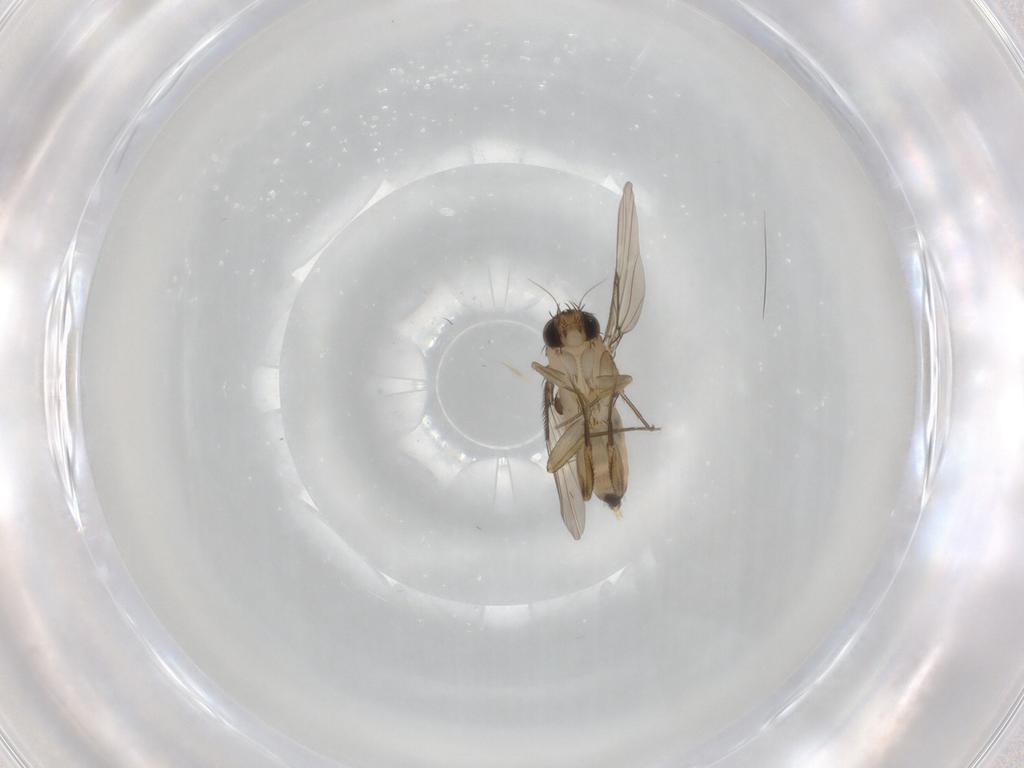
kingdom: Animalia
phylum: Arthropoda
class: Insecta
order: Diptera
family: Phoridae
